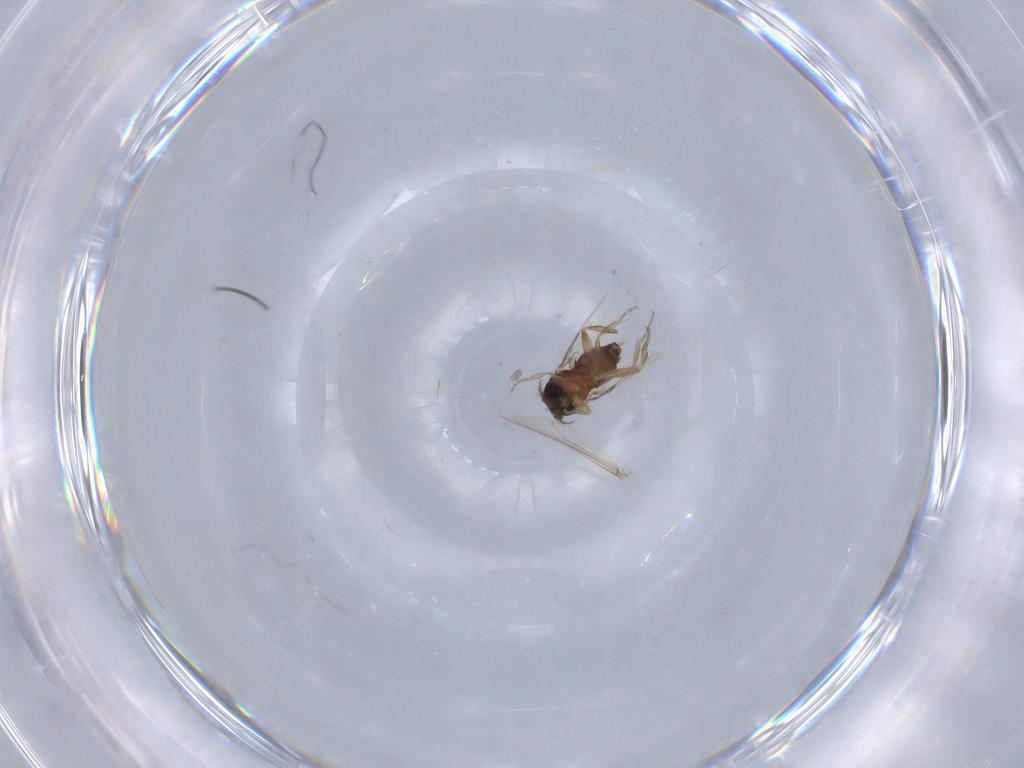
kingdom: Animalia
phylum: Arthropoda
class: Insecta
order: Diptera
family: Phoridae
